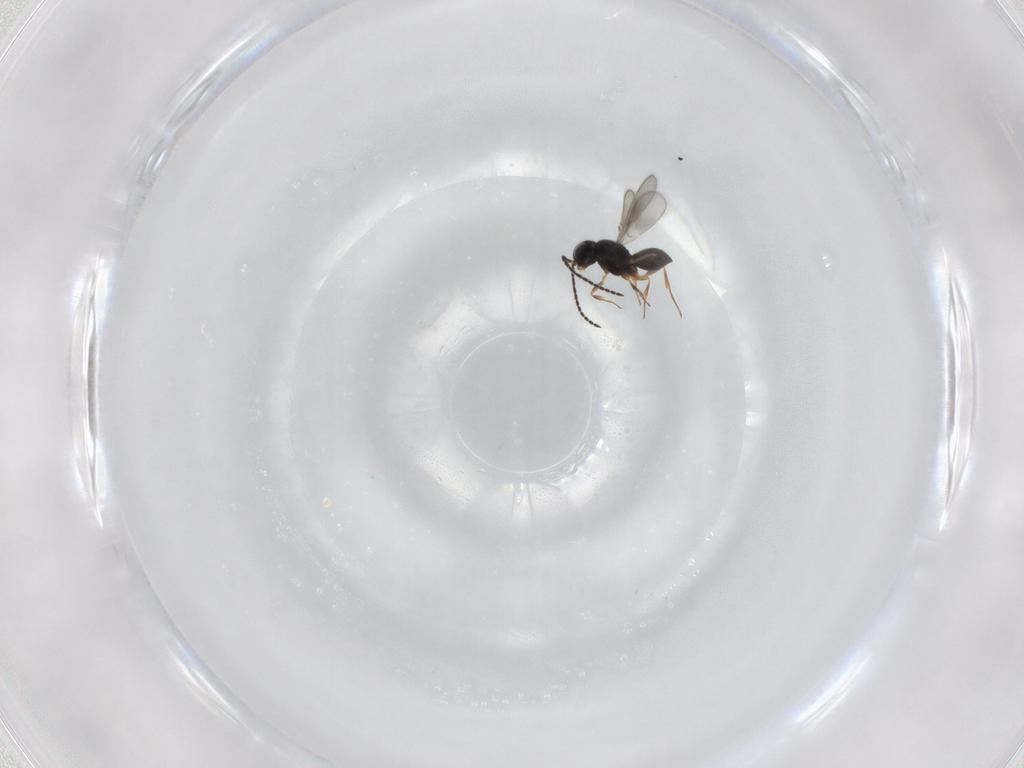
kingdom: Animalia
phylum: Arthropoda
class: Insecta
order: Hymenoptera
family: Scelionidae
